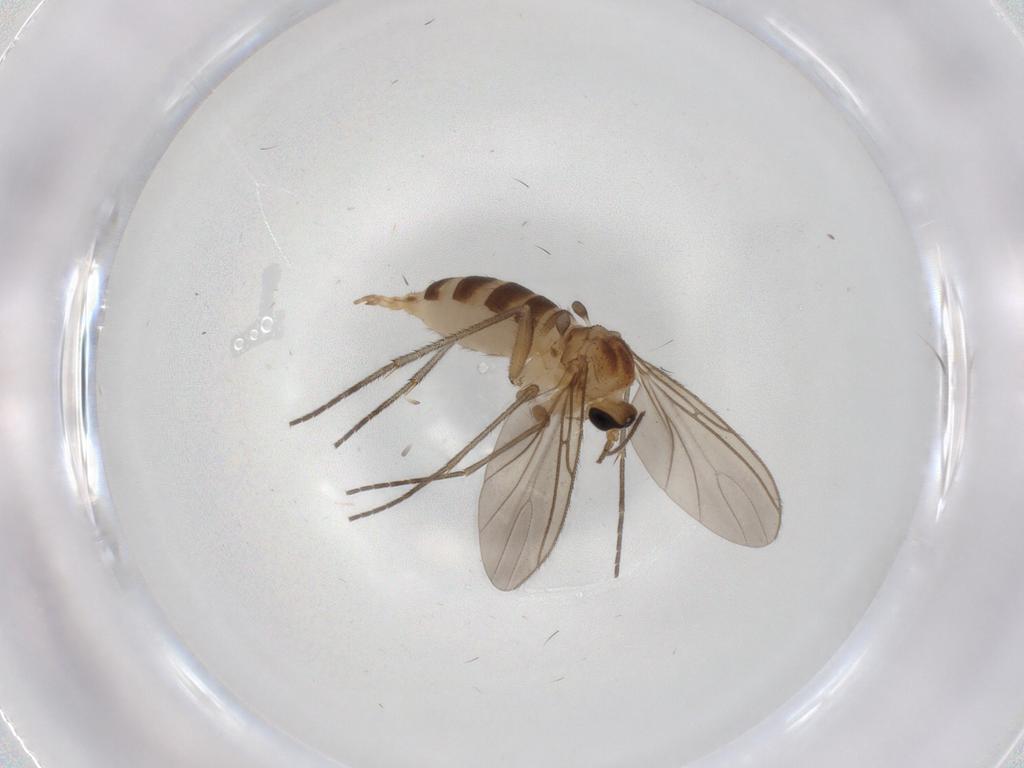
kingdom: Animalia
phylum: Arthropoda
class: Insecta
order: Diptera
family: Sciaridae
